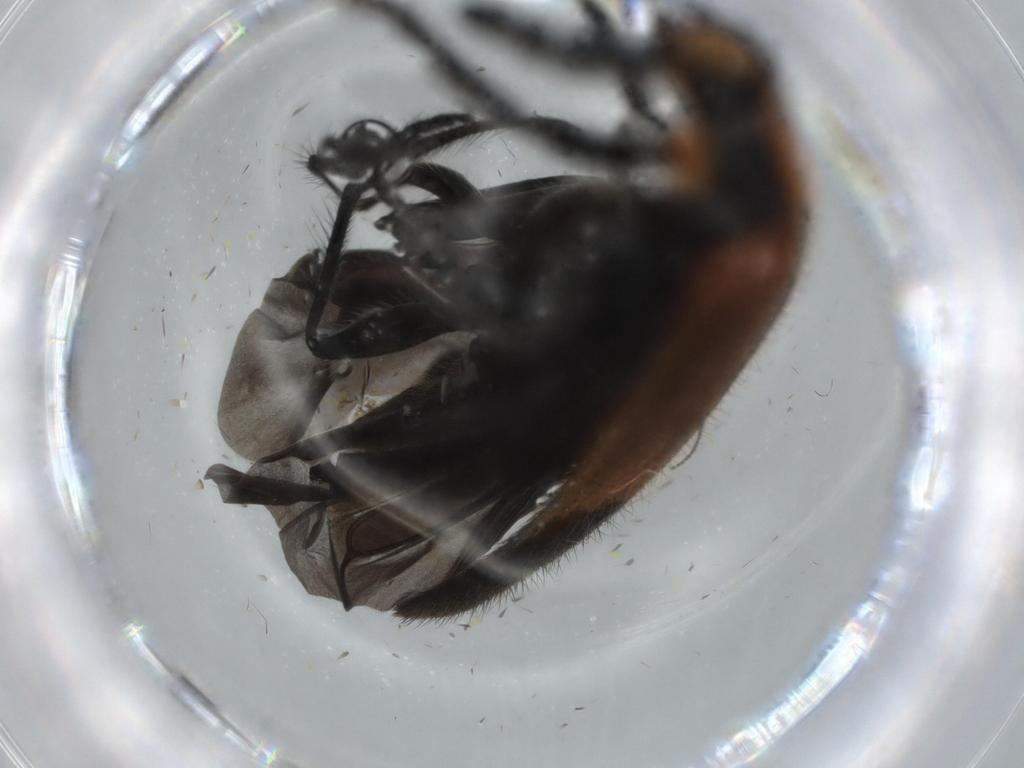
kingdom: Animalia
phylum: Arthropoda
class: Insecta
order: Coleoptera
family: Cleridae
